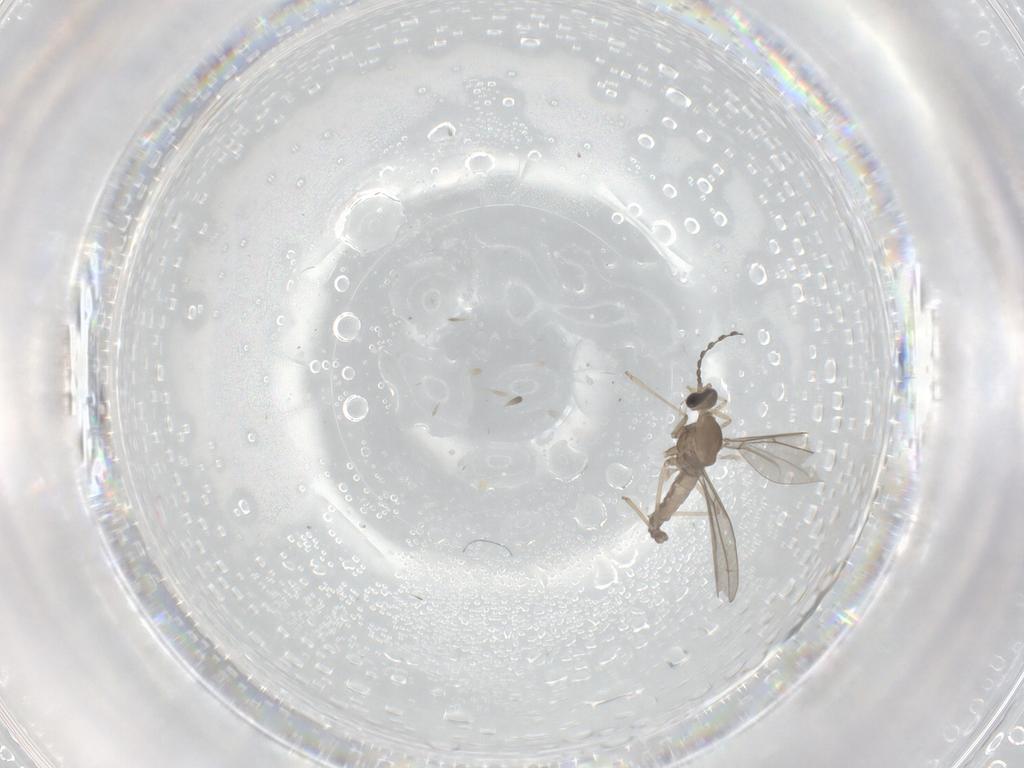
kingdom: Animalia
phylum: Arthropoda
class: Insecta
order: Diptera
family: Cecidomyiidae
